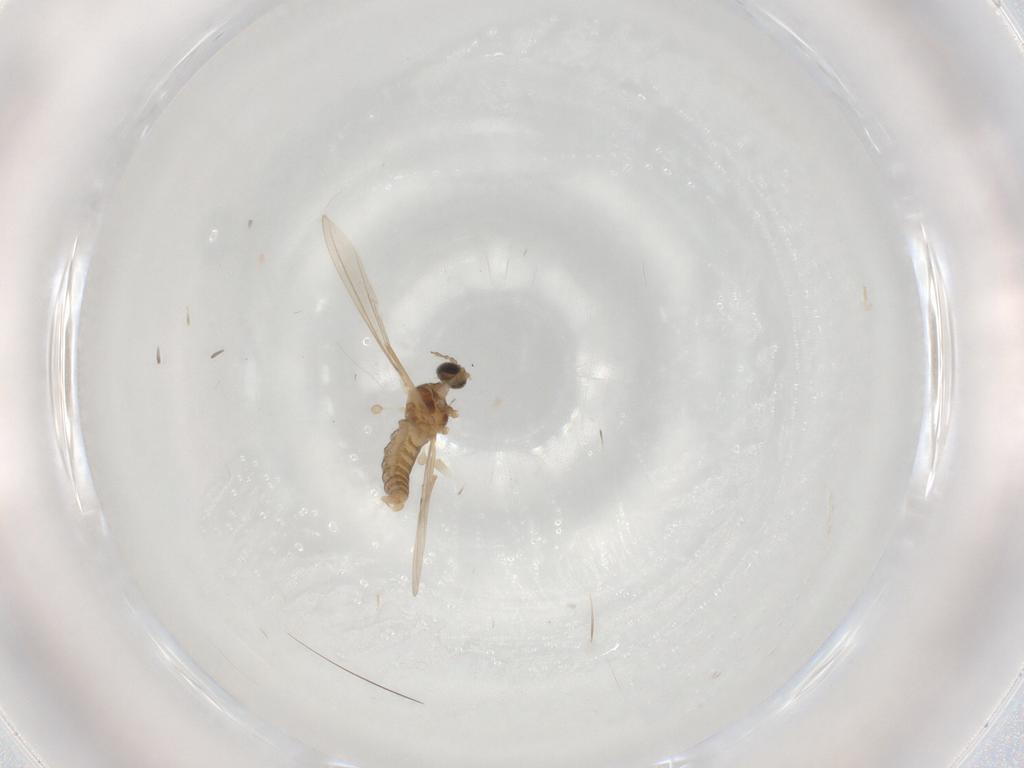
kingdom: Animalia
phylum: Arthropoda
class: Insecta
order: Diptera
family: Cecidomyiidae
